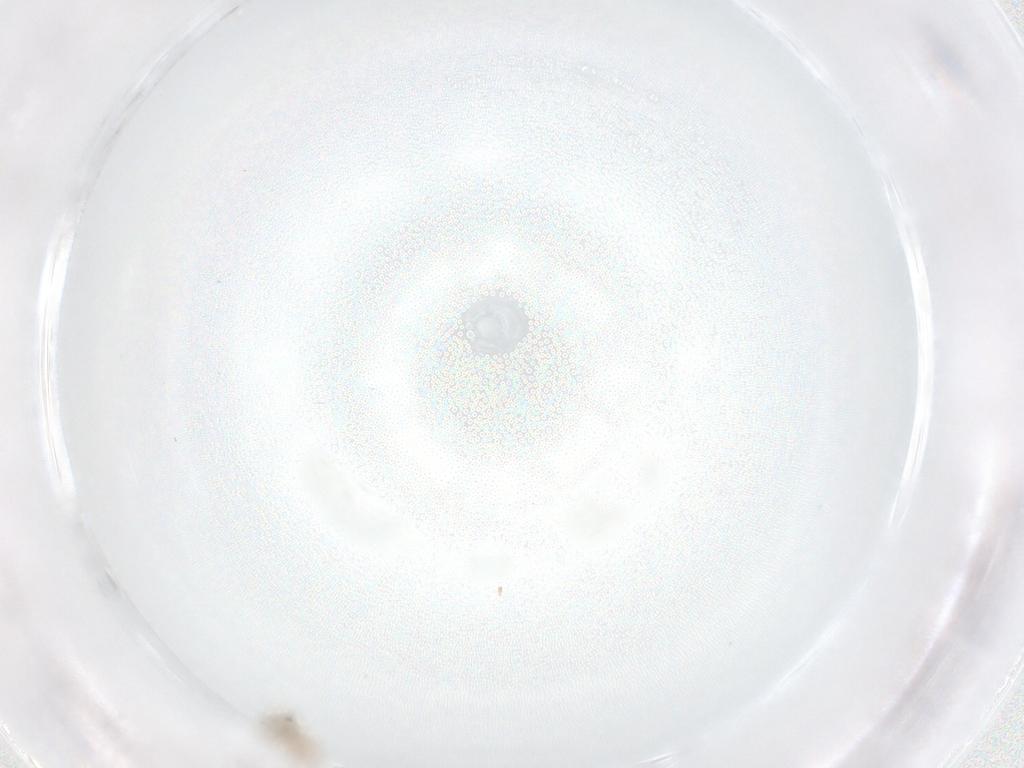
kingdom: Animalia
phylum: Arthropoda
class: Insecta
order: Diptera
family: Cecidomyiidae
